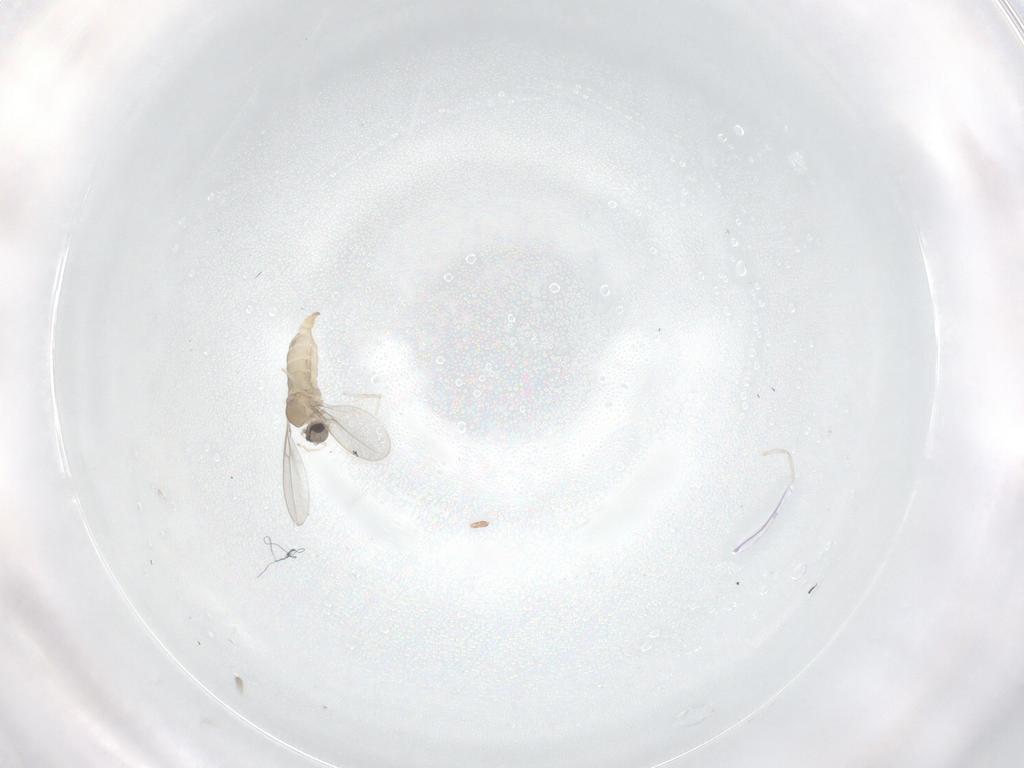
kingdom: Animalia
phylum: Arthropoda
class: Insecta
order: Diptera
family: Cecidomyiidae
